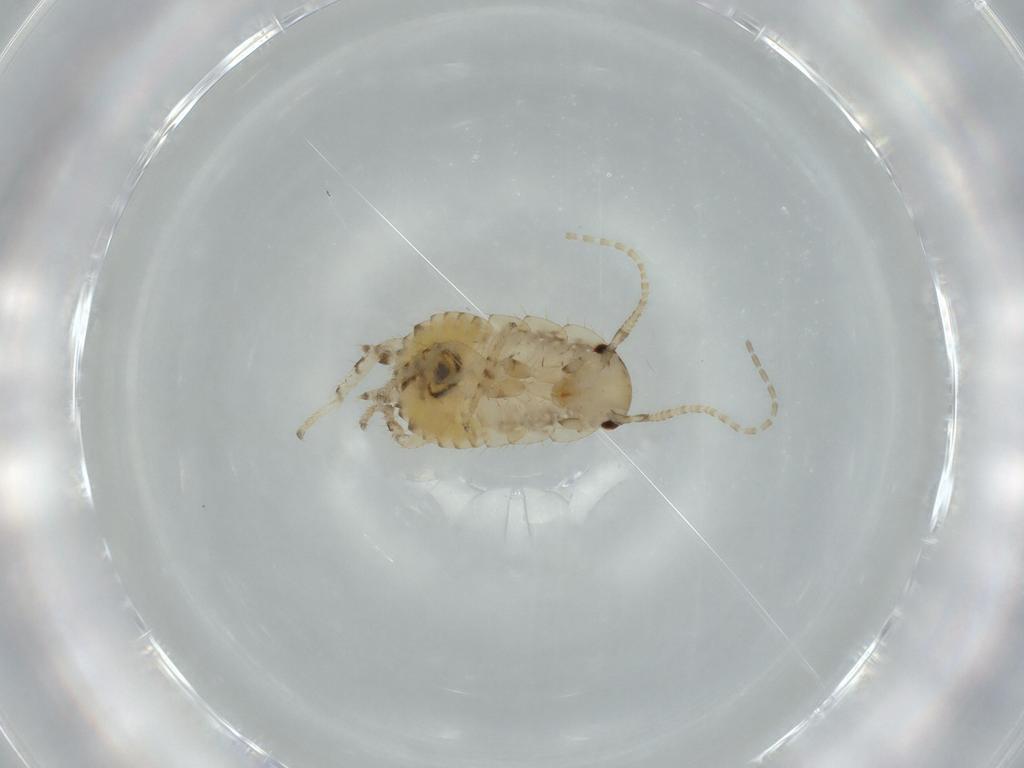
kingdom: Animalia
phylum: Arthropoda
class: Insecta
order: Blattodea
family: Ectobiidae
